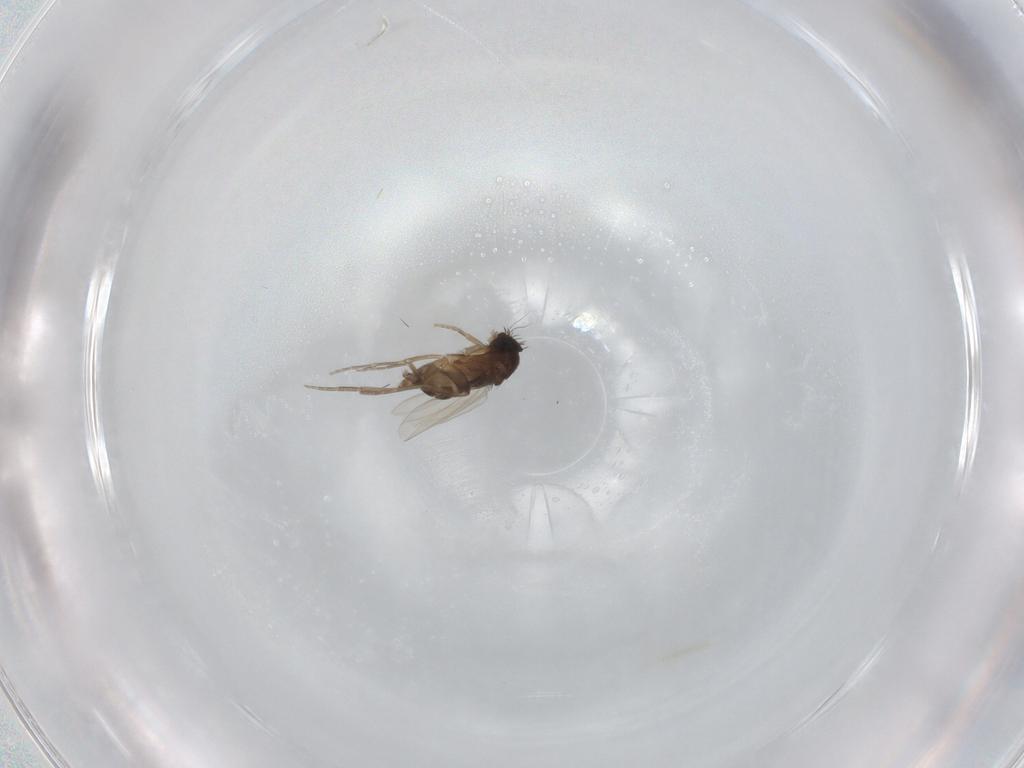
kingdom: Animalia
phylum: Arthropoda
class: Insecta
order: Diptera
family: Phoridae
